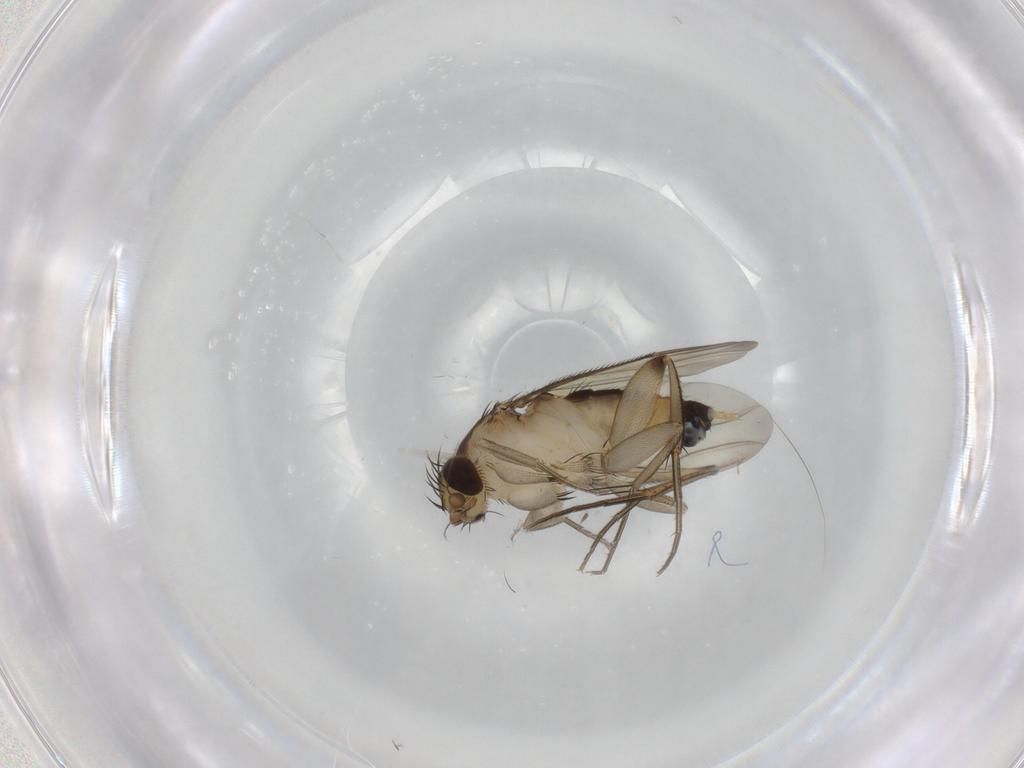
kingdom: Animalia
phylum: Arthropoda
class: Insecta
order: Diptera
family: Phoridae
